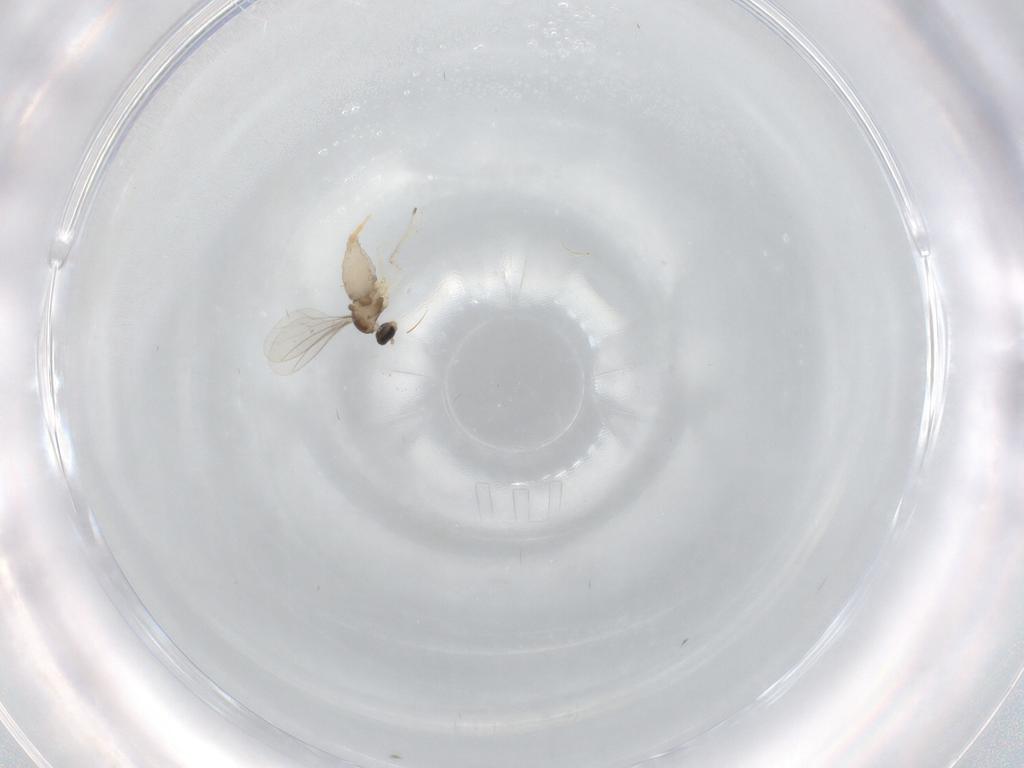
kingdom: Animalia
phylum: Arthropoda
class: Insecta
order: Diptera
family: Cecidomyiidae
